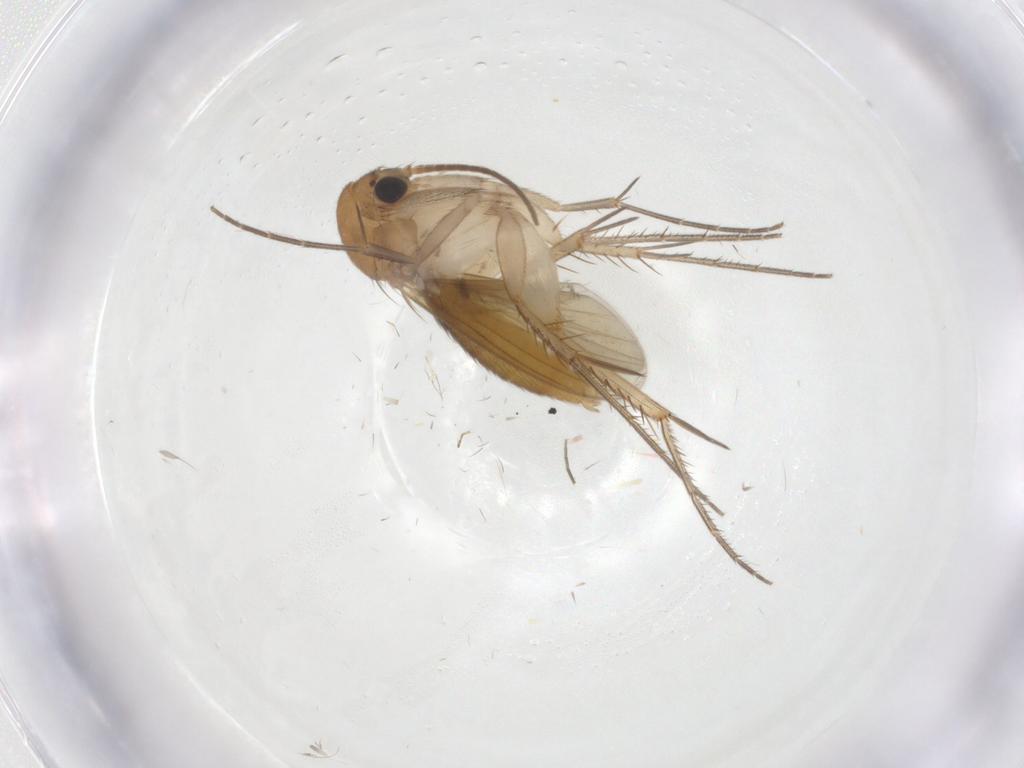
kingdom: Animalia
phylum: Arthropoda
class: Insecta
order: Diptera
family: Mycetophilidae
